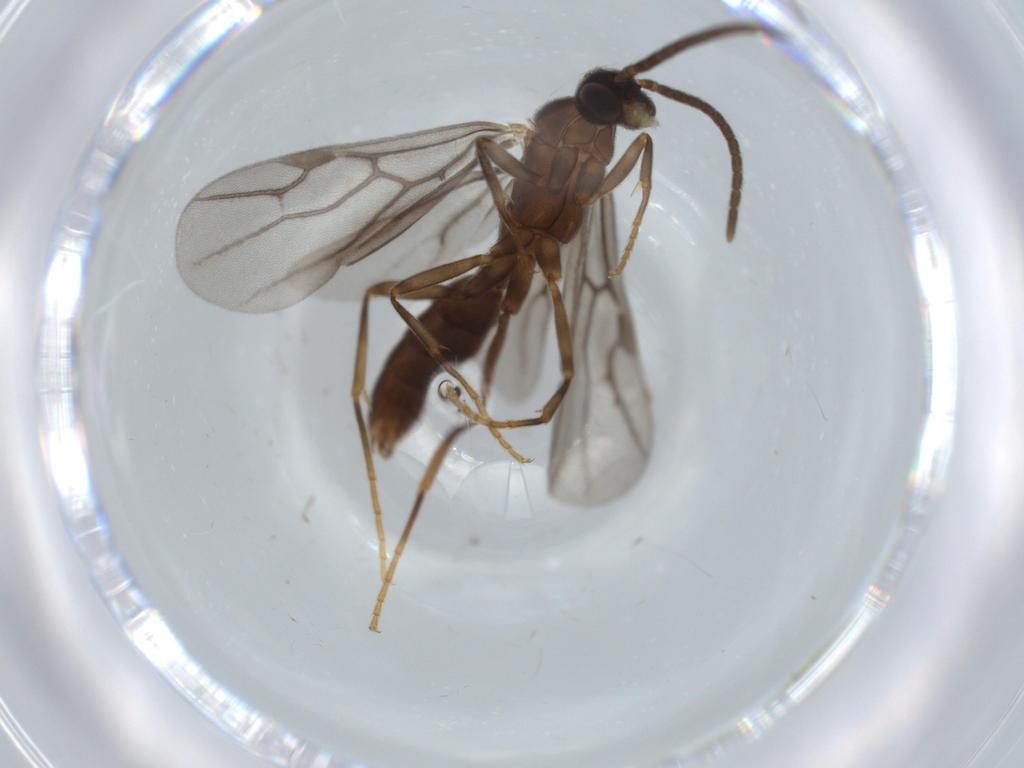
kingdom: Animalia
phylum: Arthropoda
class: Insecta
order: Hymenoptera
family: Formicidae
